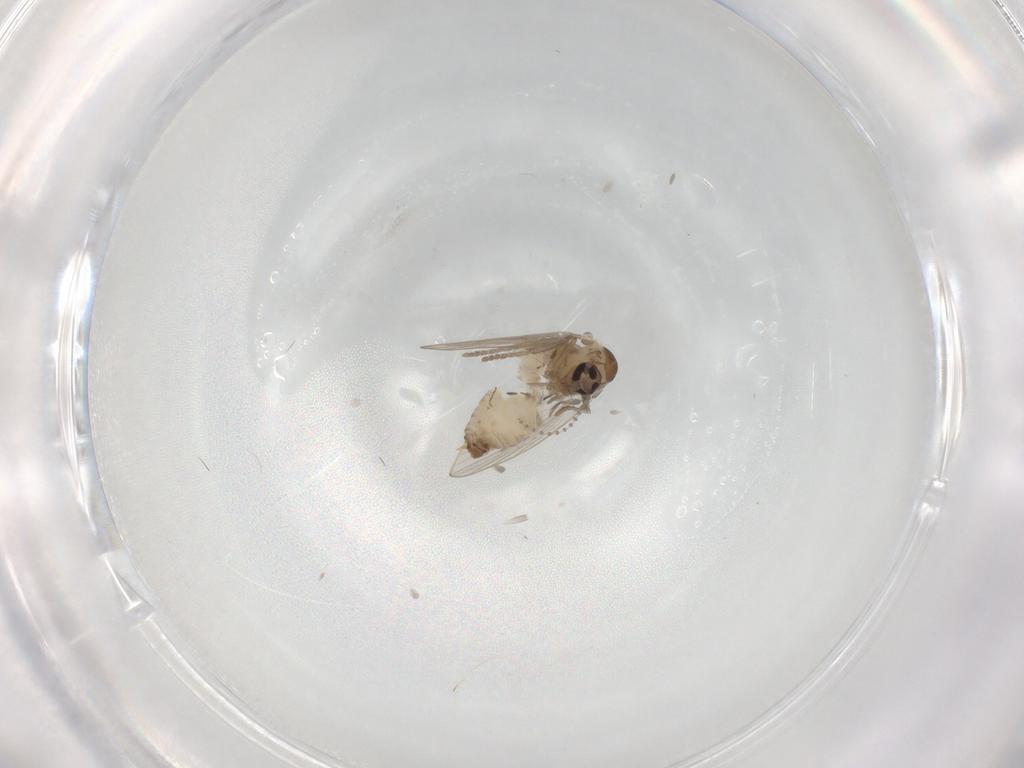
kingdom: Animalia
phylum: Arthropoda
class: Insecta
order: Diptera
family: Psychodidae
